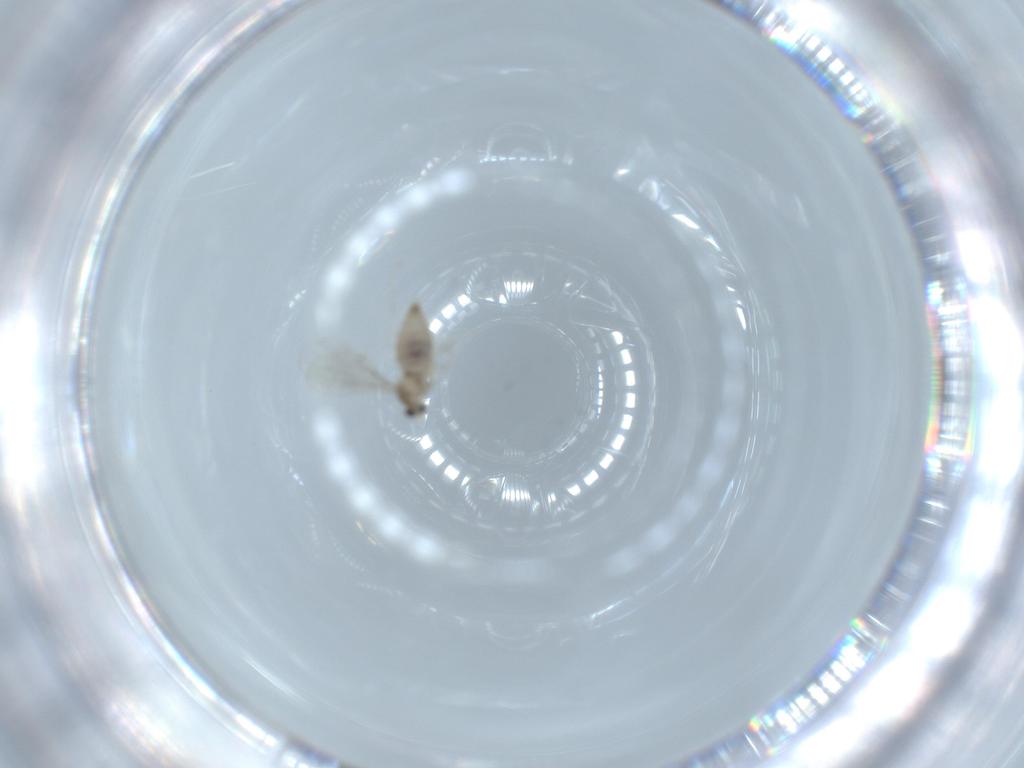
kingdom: Animalia
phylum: Arthropoda
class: Insecta
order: Diptera
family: Cecidomyiidae
